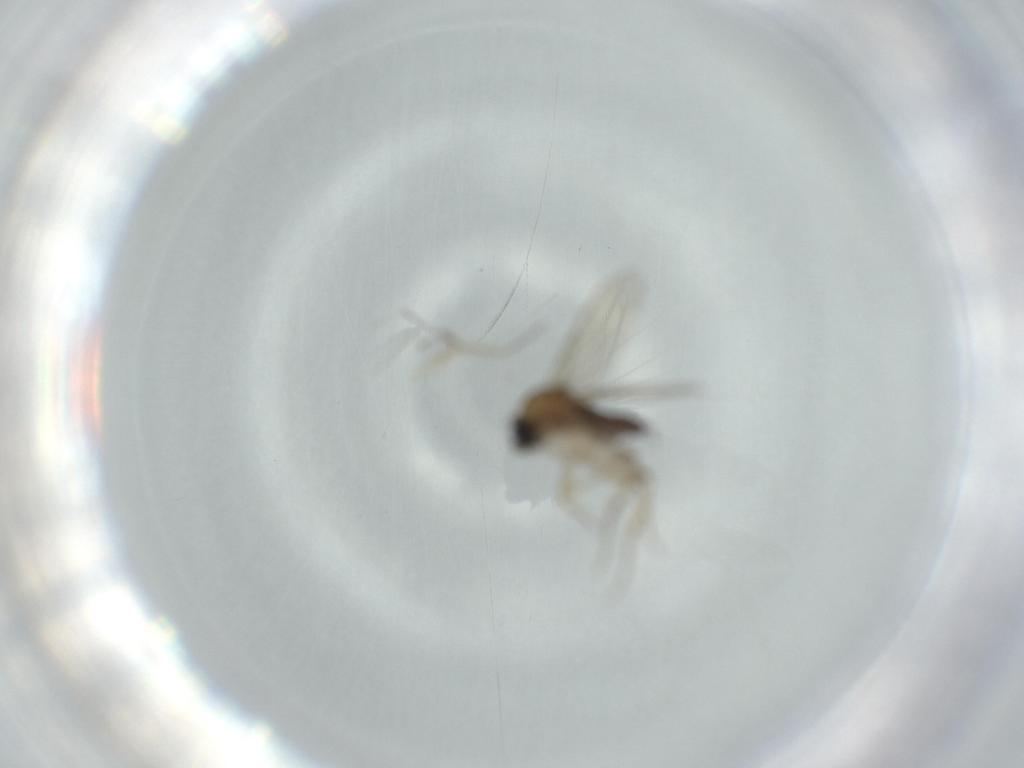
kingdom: Animalia
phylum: Arthropoda
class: Insecta
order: Diptera
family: Phoridae
